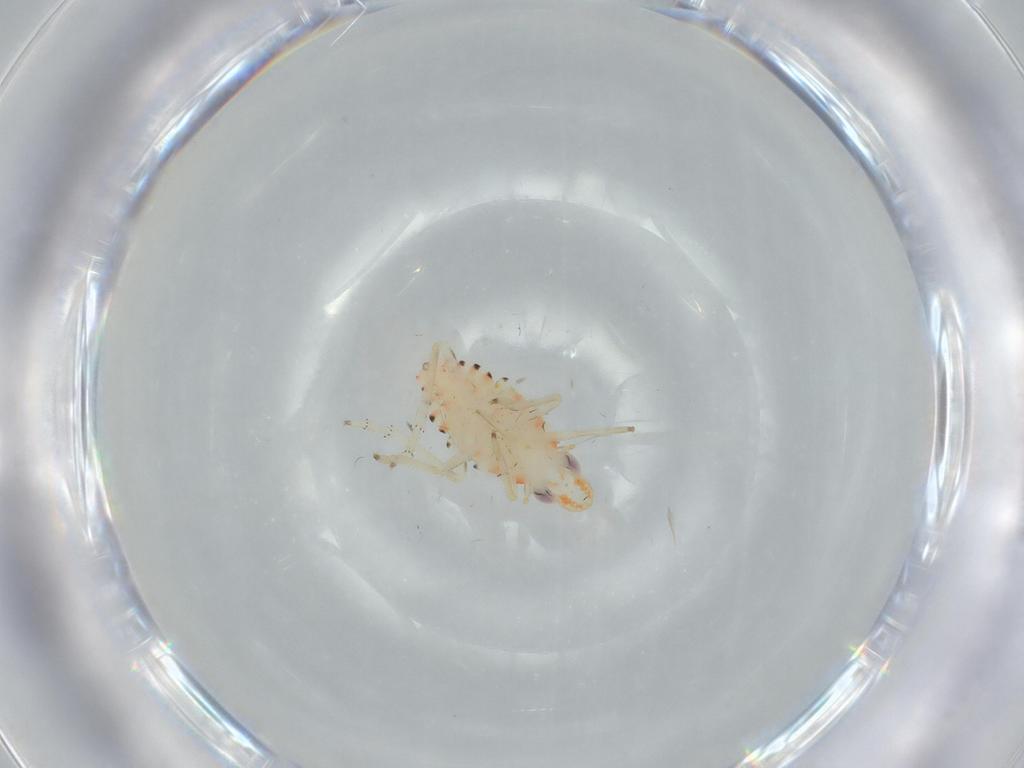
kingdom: Animalia
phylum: Arthropoda
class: Insecta
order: Hemiptera
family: Tropiduchidae
